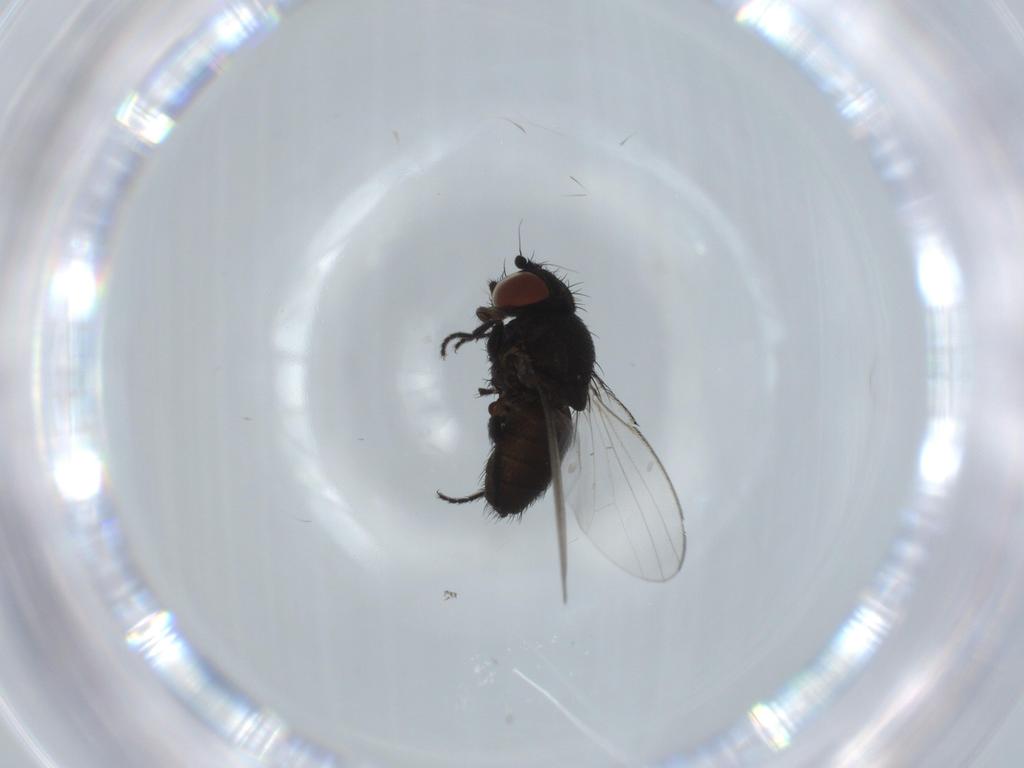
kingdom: Animalia
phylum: Arthropoda
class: Insecta
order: Diptera
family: Milichiidae
